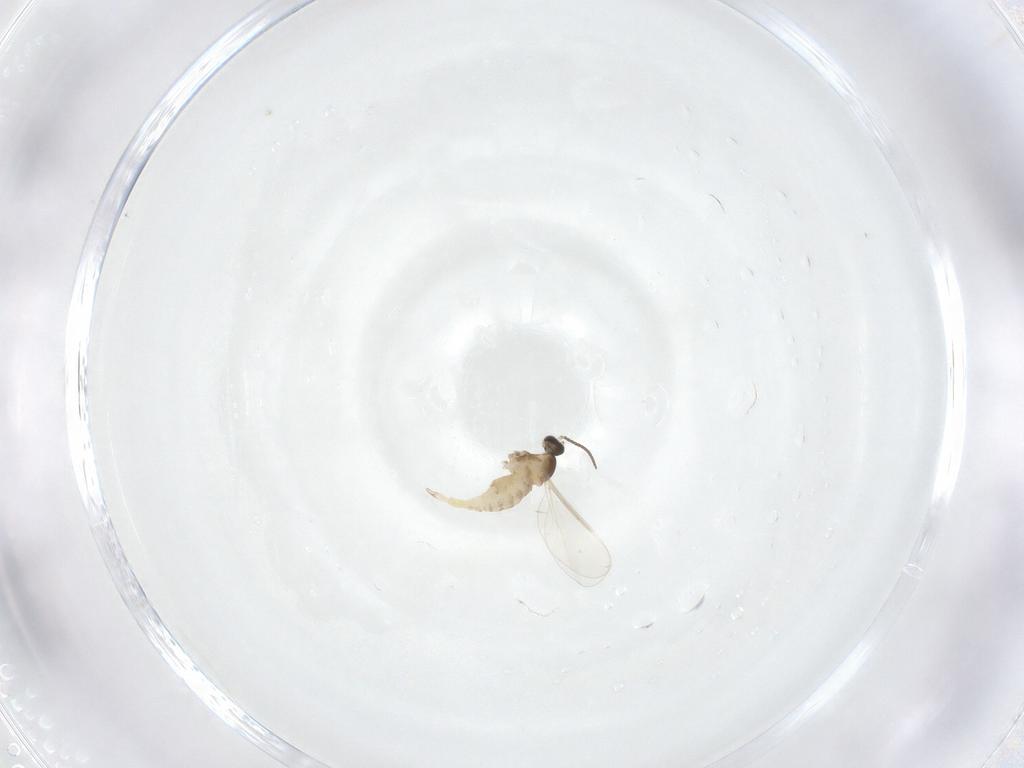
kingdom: Animalia
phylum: Arthropoda
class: Insecta
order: Diptera
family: Cecidomyiidae
